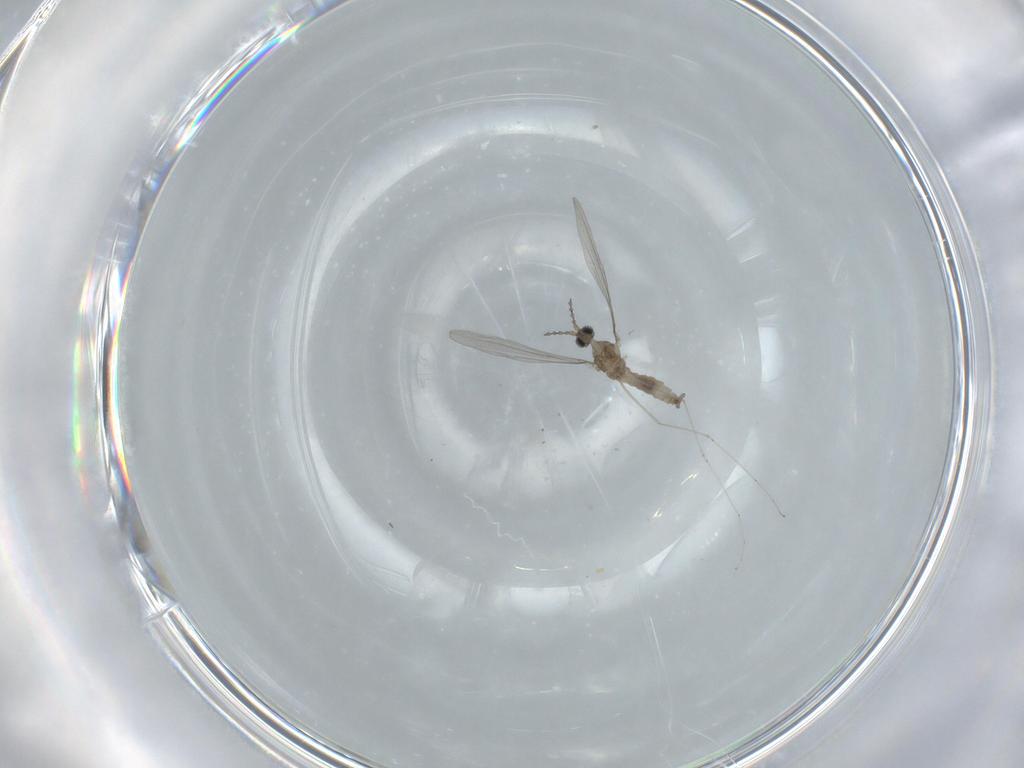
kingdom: Animalia
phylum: Arthropoda
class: Insecta
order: Diptera
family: Cecidomyiidae
